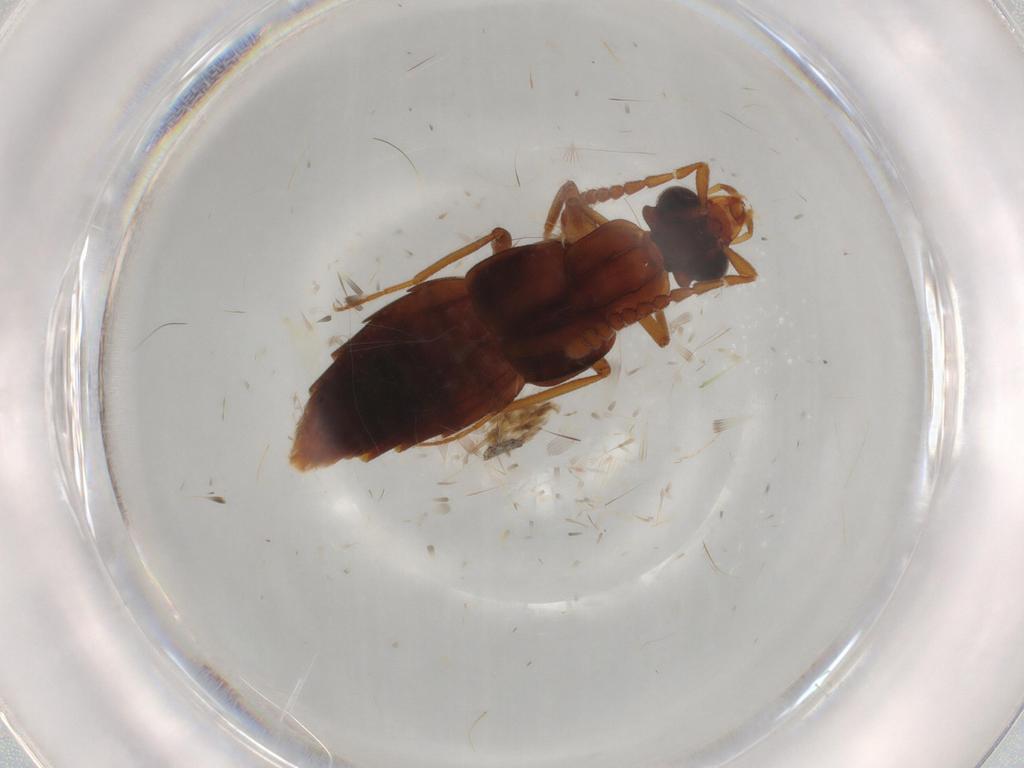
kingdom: Animalia
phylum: Arthropoda
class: Insecta
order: Coleoptera
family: Staphylinidae
